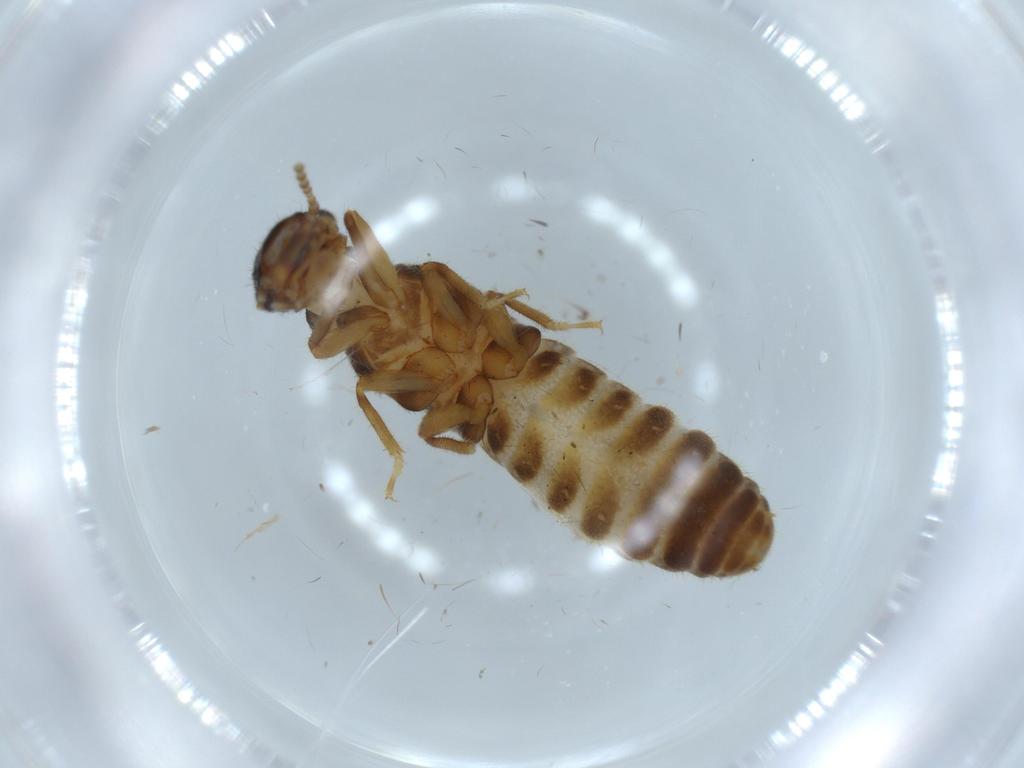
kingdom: Animalia
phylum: Arthropoda
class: Insecta
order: Blattodea
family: Termitidae
